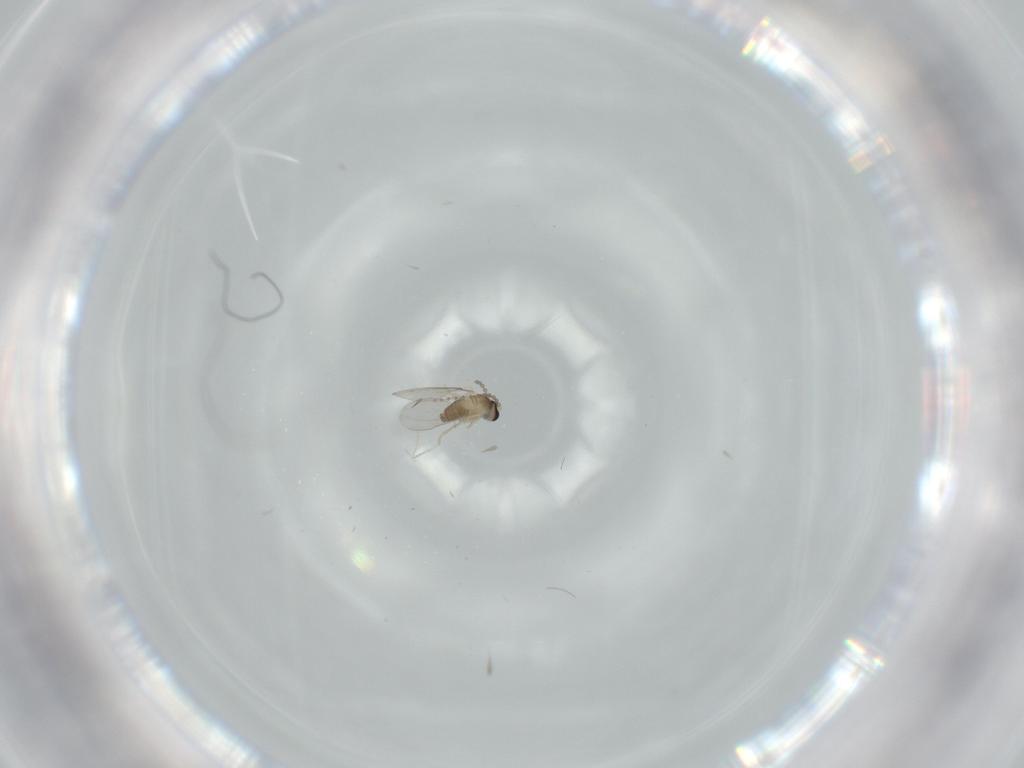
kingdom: Animalia
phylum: Arthropoda
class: Insecta
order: Diptera
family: Cecidomyiidae
